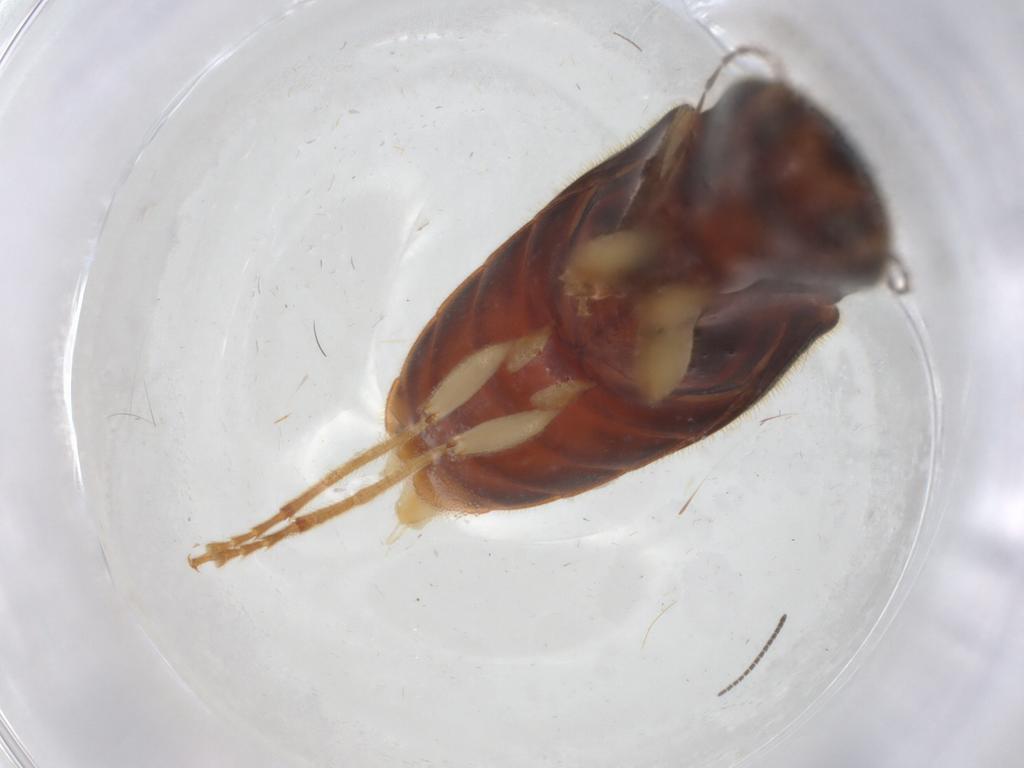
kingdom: Animalia
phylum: Arthropoda
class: Insecta
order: Coleoptera
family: Elateridae
